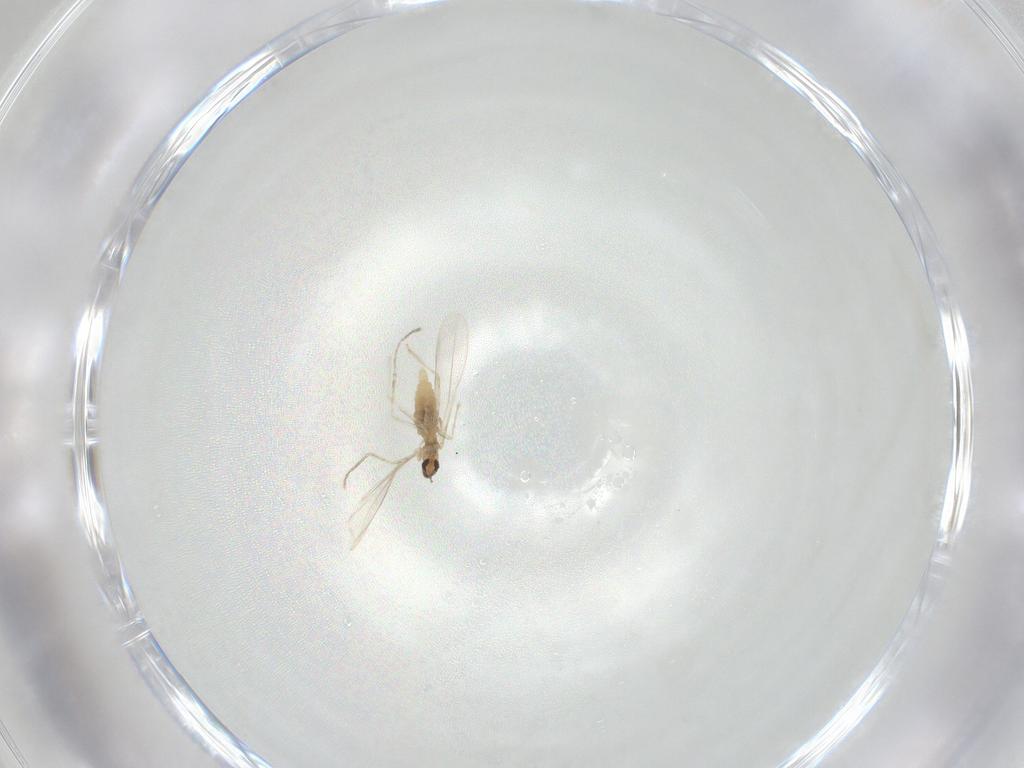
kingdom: Animalia
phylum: Arthropoda
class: Insecta
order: Diptera
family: Cecidomyiidae
